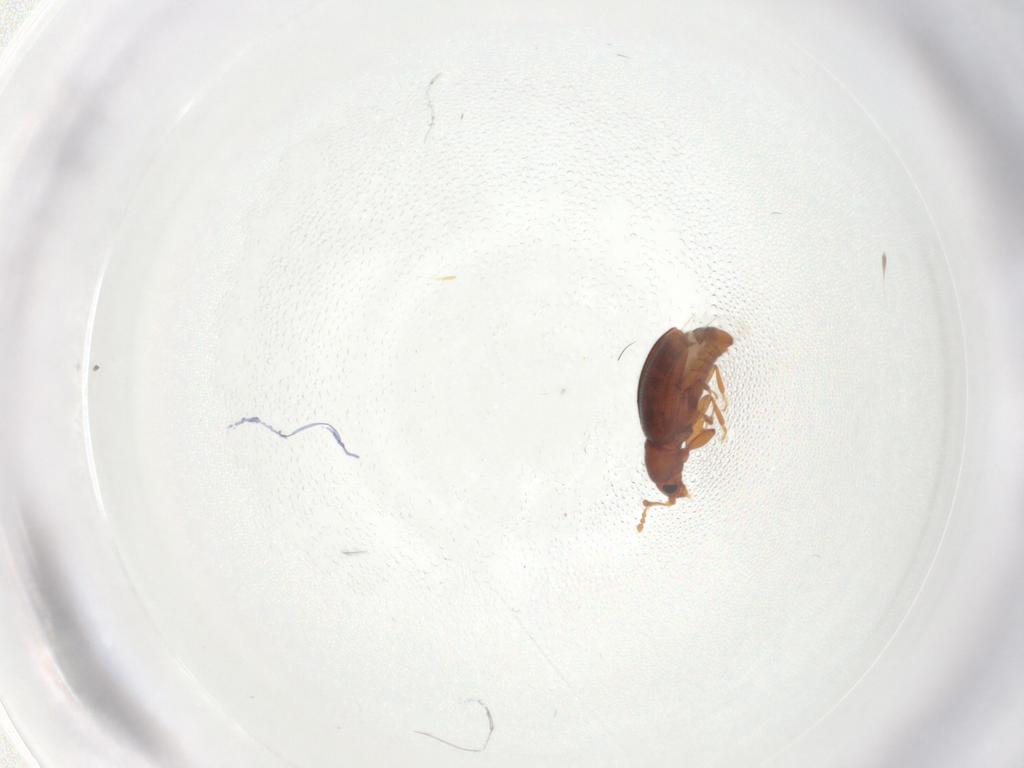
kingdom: Animalia
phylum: Arthropoda
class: Insecta
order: Coleoptera
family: Latridiidae
